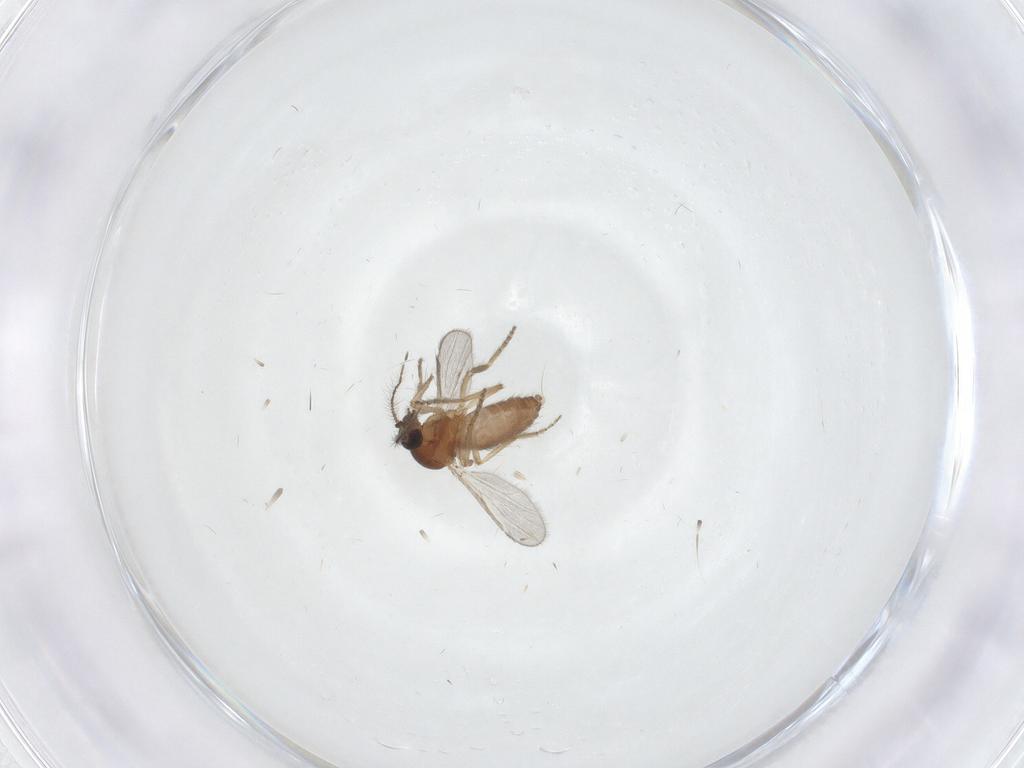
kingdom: Animalia
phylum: Arthropoda
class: Insecta
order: Diptera
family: Ceratopogonidae
